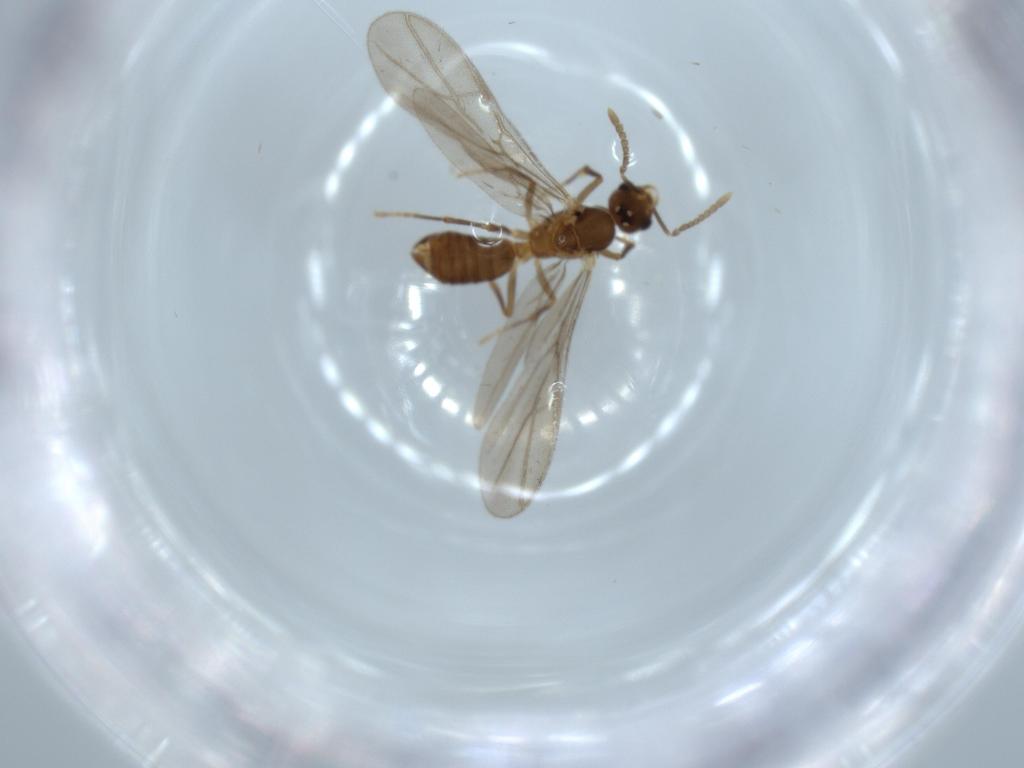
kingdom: Animalia
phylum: Arthropoda
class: Insecta
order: Hymenoptera
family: Formicidae
